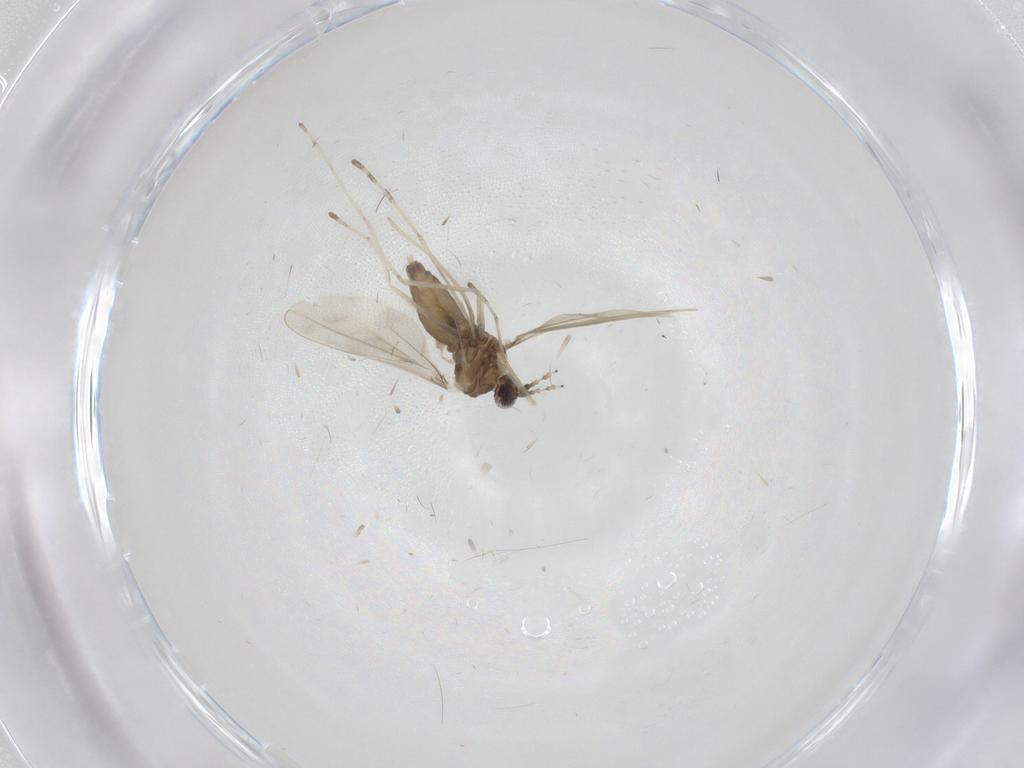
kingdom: Animalia
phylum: Arthropoda
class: Insecta
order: Diptera
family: Cecidomyiidae
